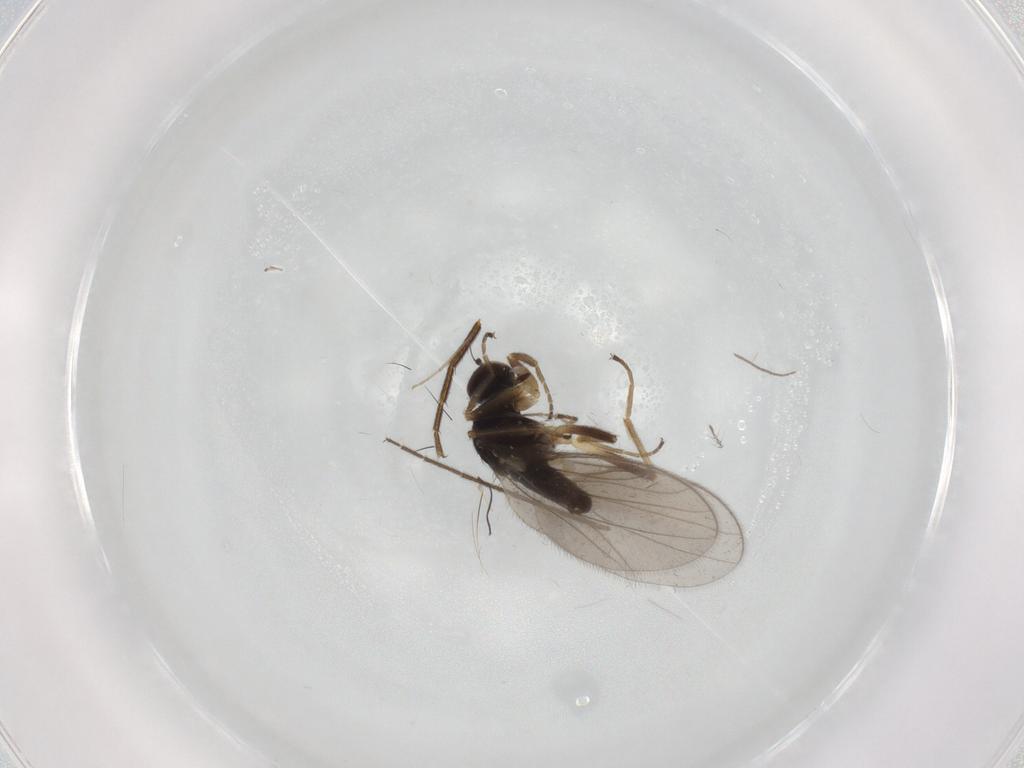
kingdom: Animalia
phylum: Arthropoda
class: Insecta
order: Diptera
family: Hybotidae
